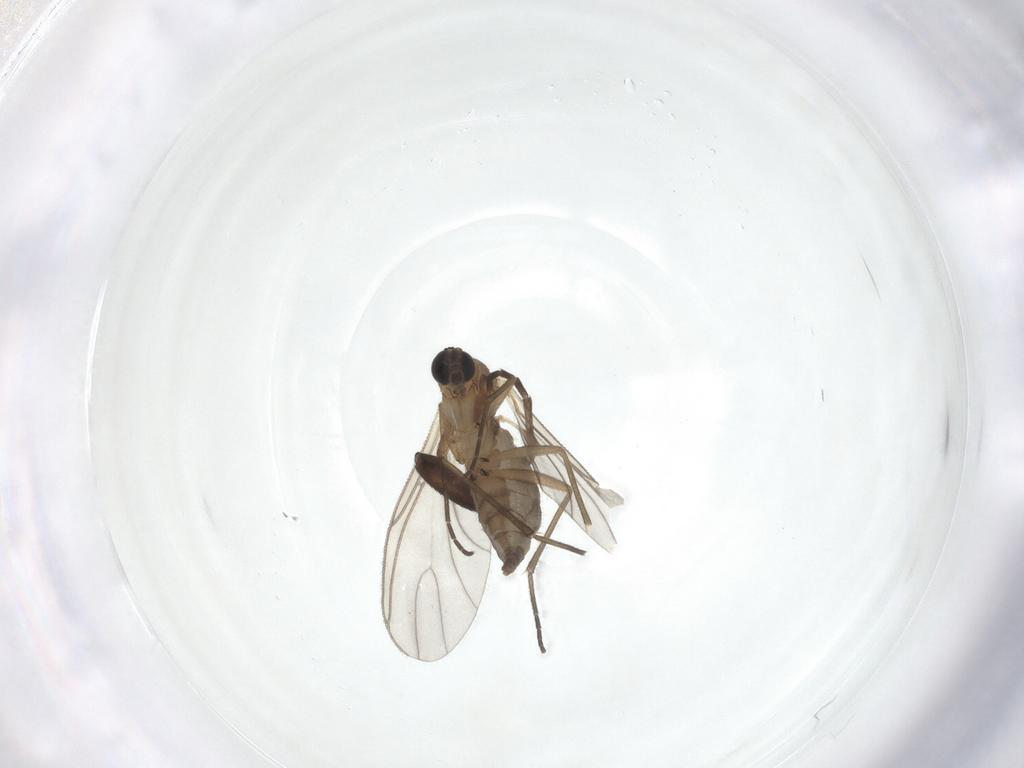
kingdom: Animalia
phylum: Arthropoda
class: Insecta
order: Diptera
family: Sciaridae
